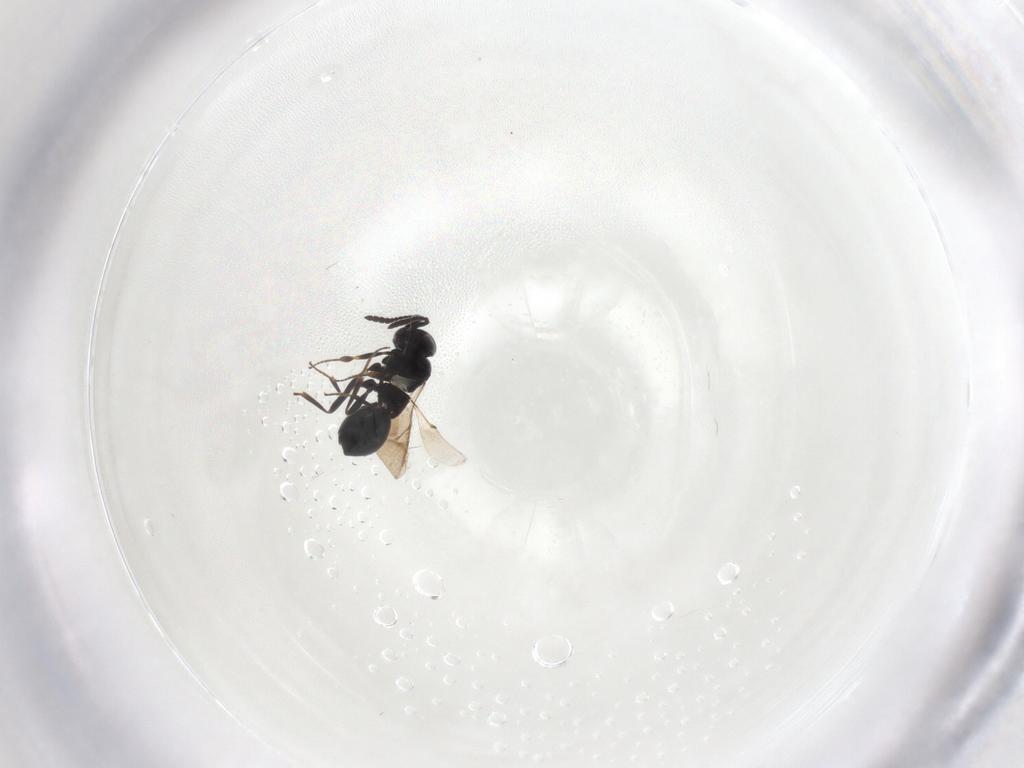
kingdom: Animalia
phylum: Arthropoda
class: Insecta
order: Hymenoptera
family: Scelionidae
